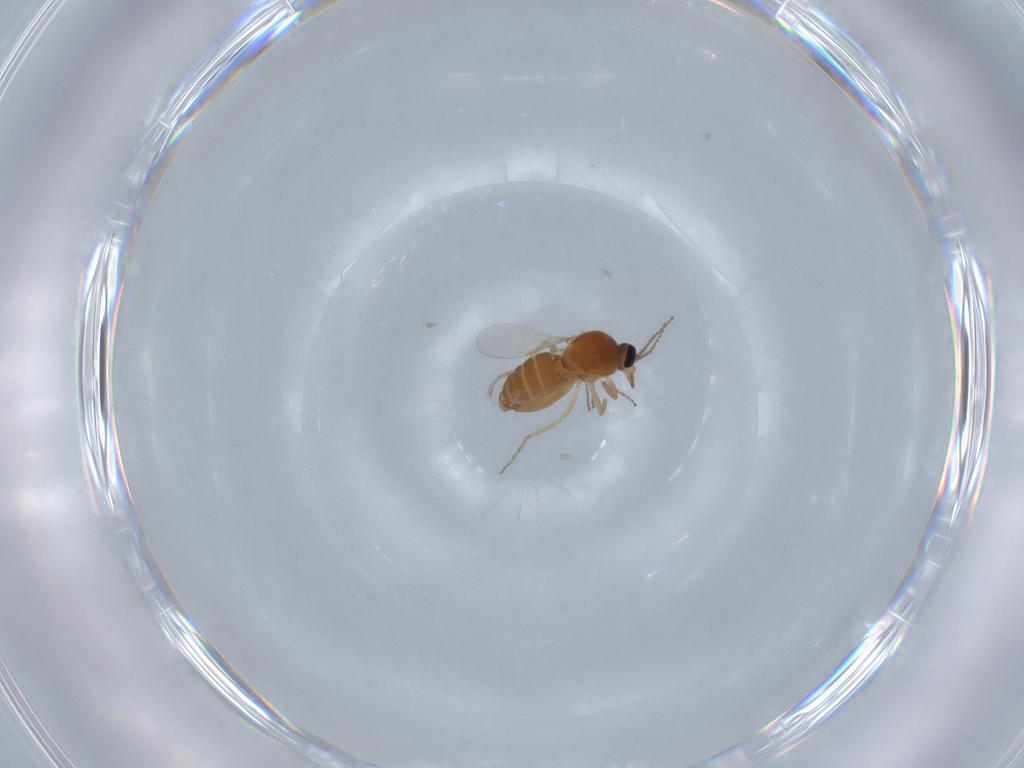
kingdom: Animalia
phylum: Arthropoda
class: Insecta
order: Diptera
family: Ceratopogonidae
